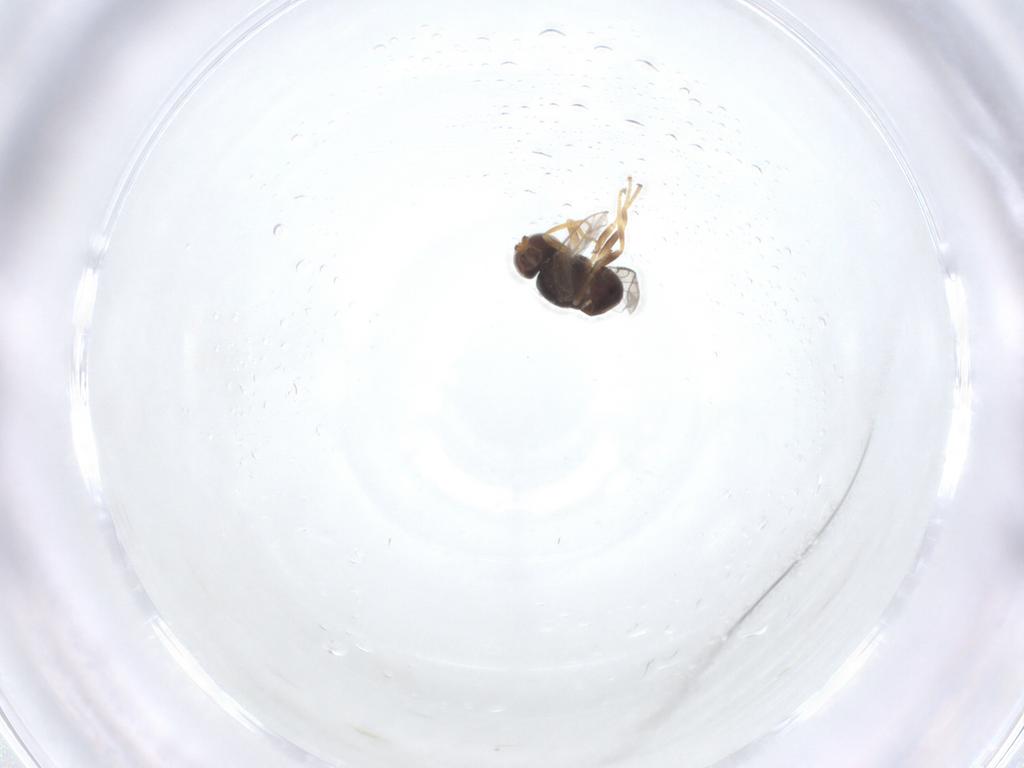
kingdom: Animalia
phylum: Arthropoda
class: Insecta
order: Diptera
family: Chloropidae
